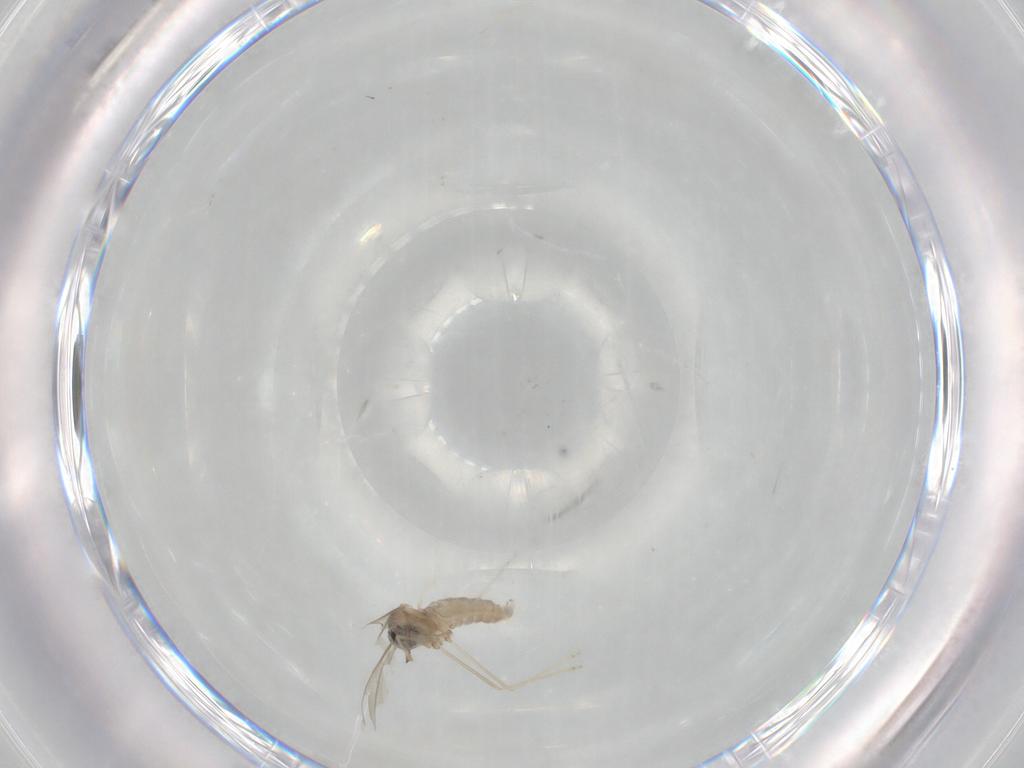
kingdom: Animalia
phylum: Arthropoda
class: Insecta
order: Diptera
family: Cecidomyiidae
